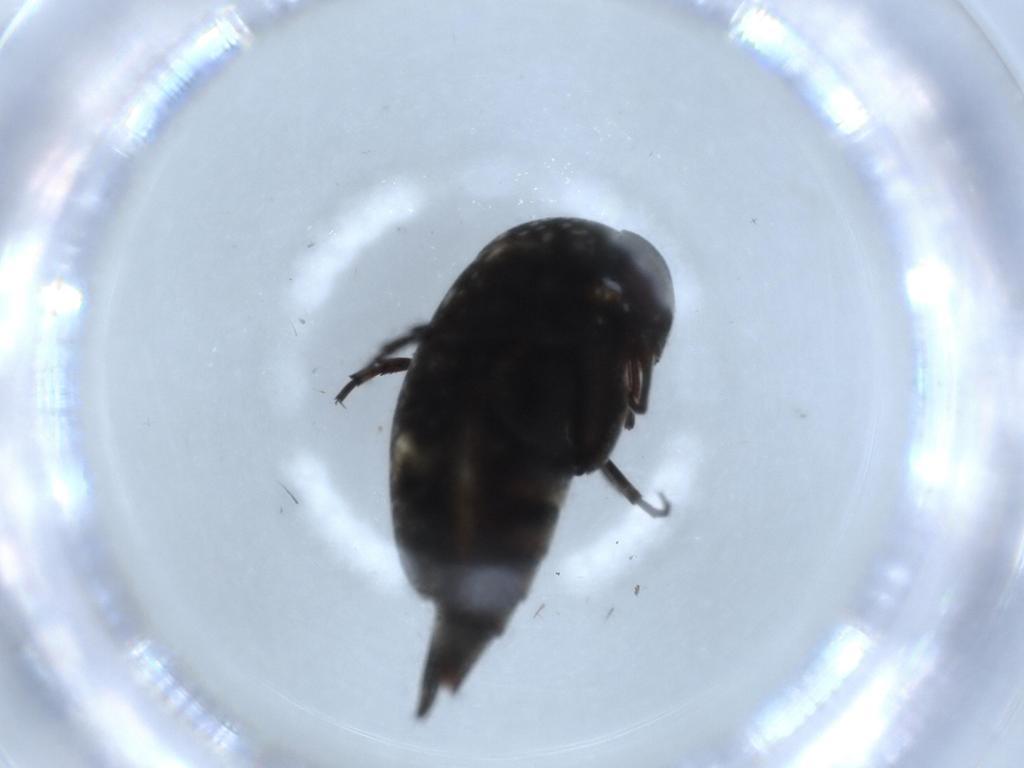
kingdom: Animalia
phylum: Arthropoda
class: Insecta
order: Coleoptera
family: Mordellidae
